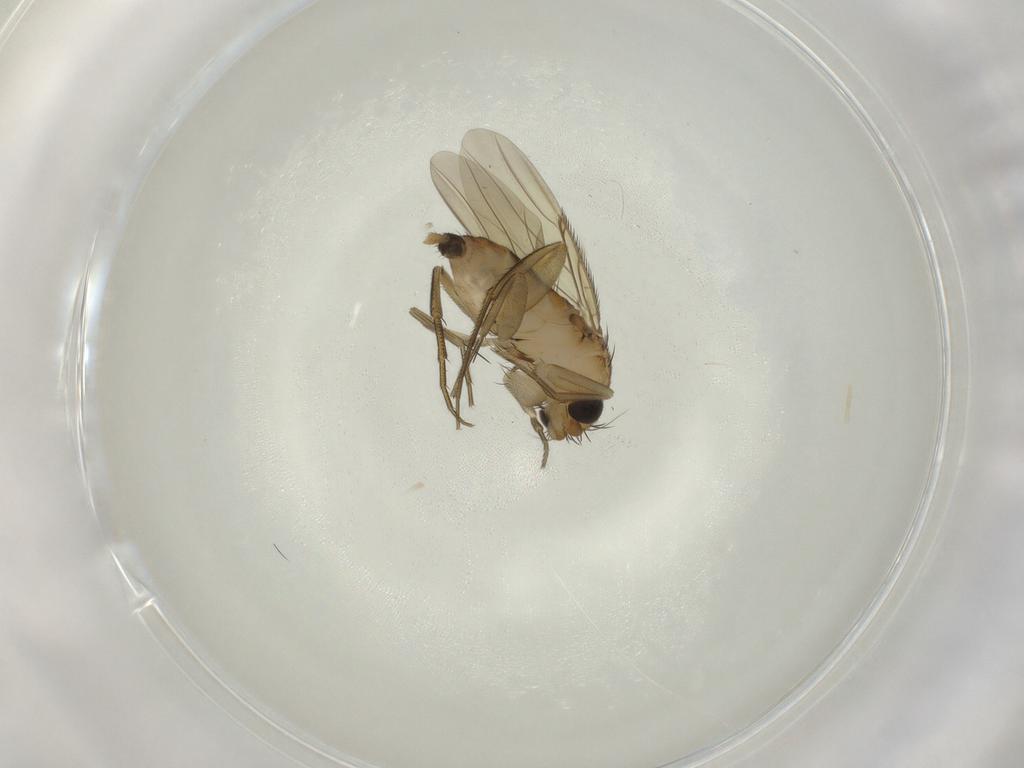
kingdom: Animalia
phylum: Arthropoda
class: Insecta
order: Diptera
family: Phoridae
